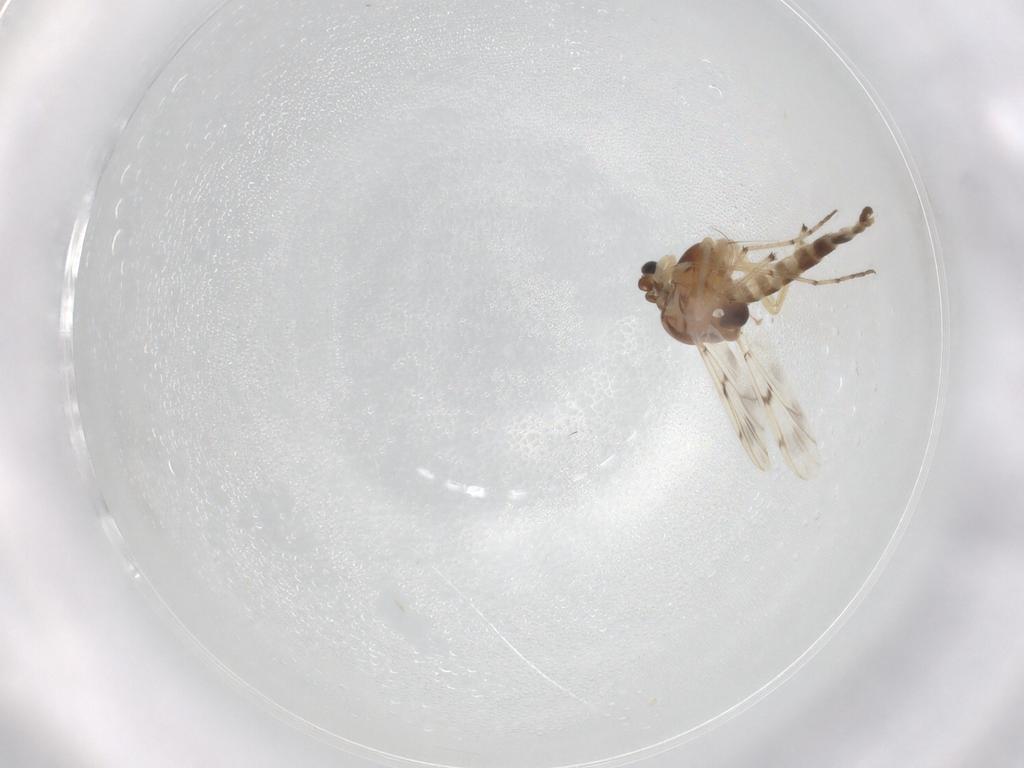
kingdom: Animalia
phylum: Arthropoda
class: Insecta
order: Diptera
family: Chironomidae
